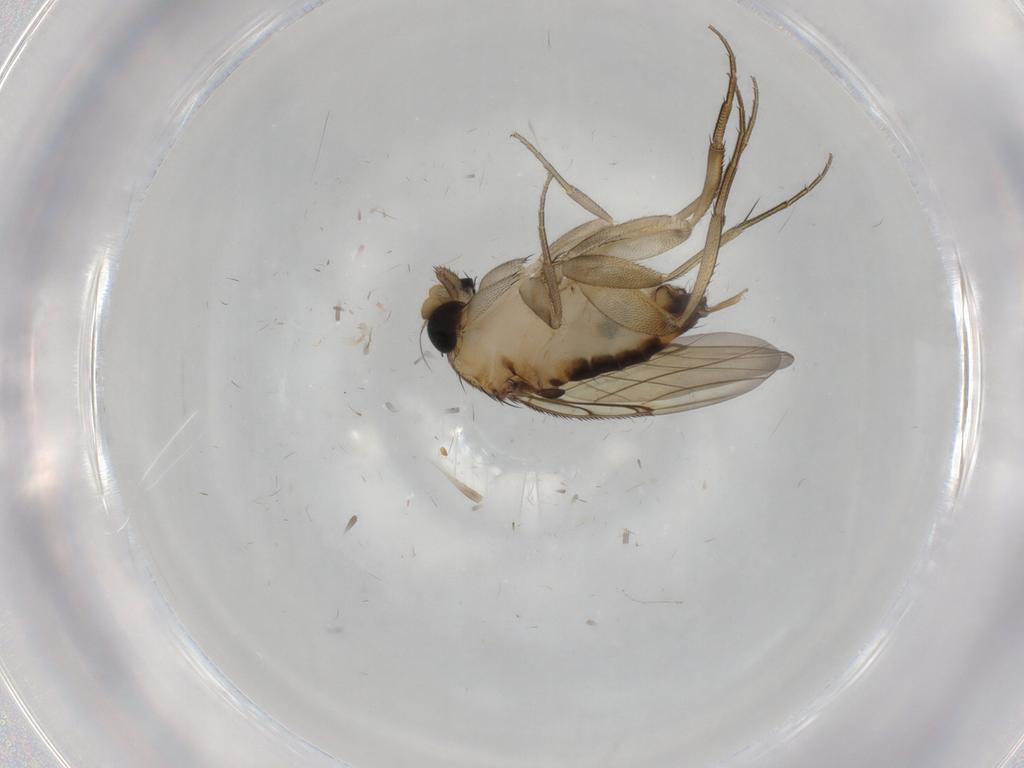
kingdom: Animalia
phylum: Arthropoda
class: Insecta
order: Diptera
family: Phoridae
